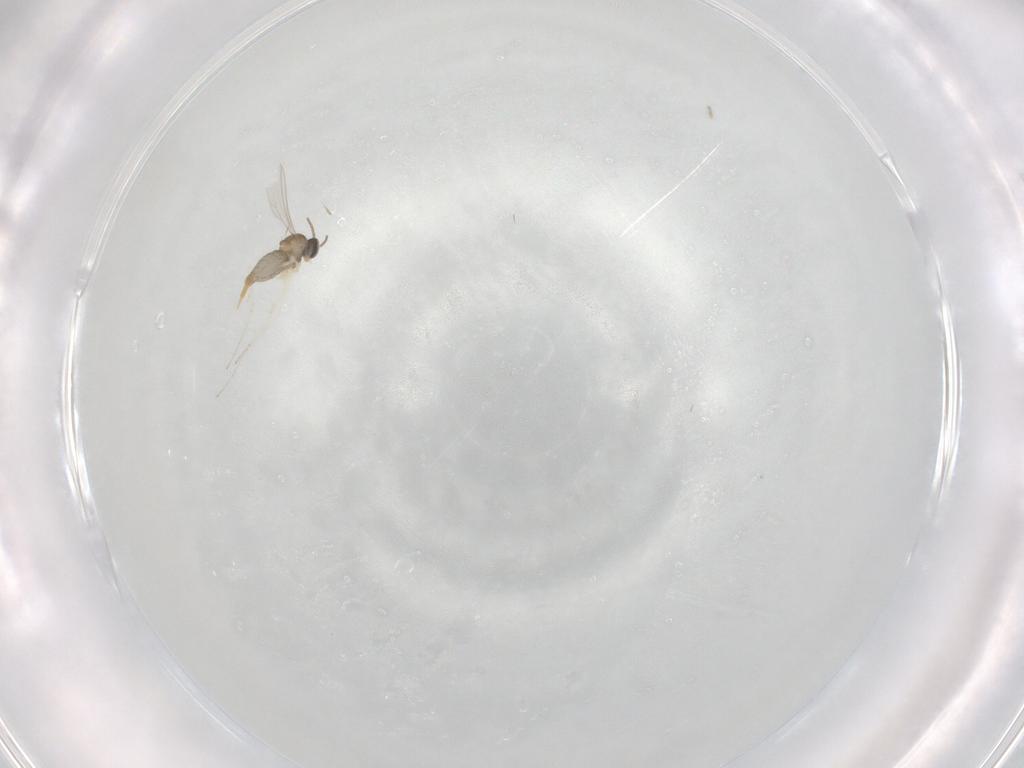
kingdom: Animalia
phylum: Arthropoda
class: Insecta
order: Diptera
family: Cecidomyiidae
